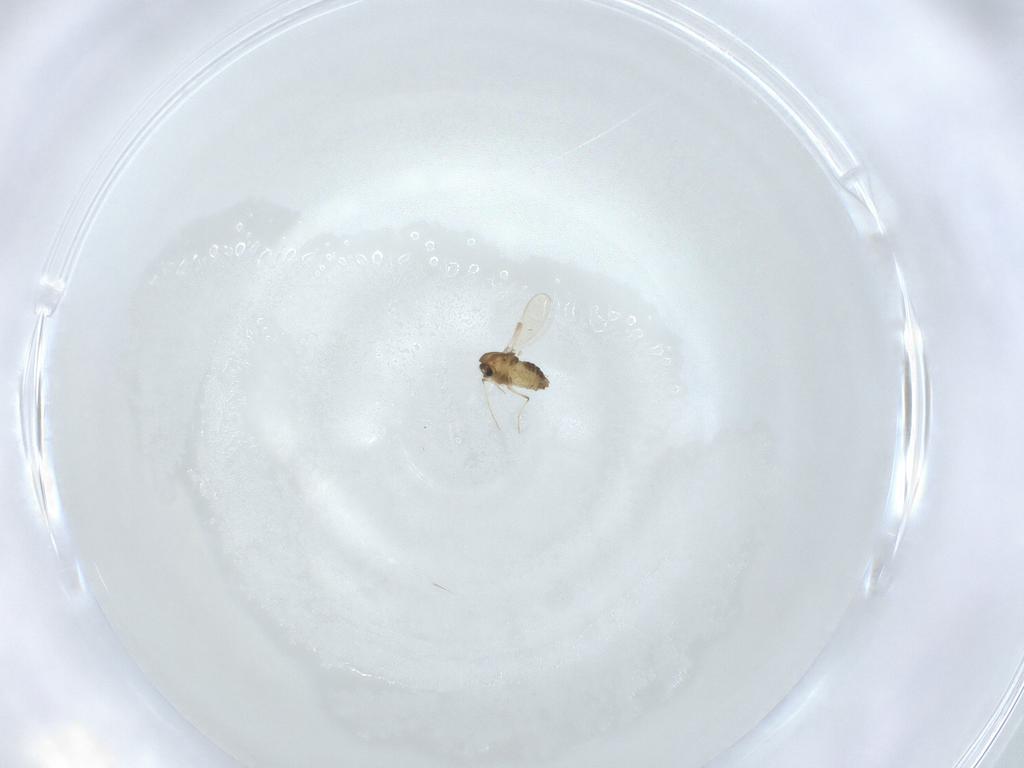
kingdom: Animalia
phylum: Arthropoda
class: Insecta
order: Diptera
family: Chironomidae
